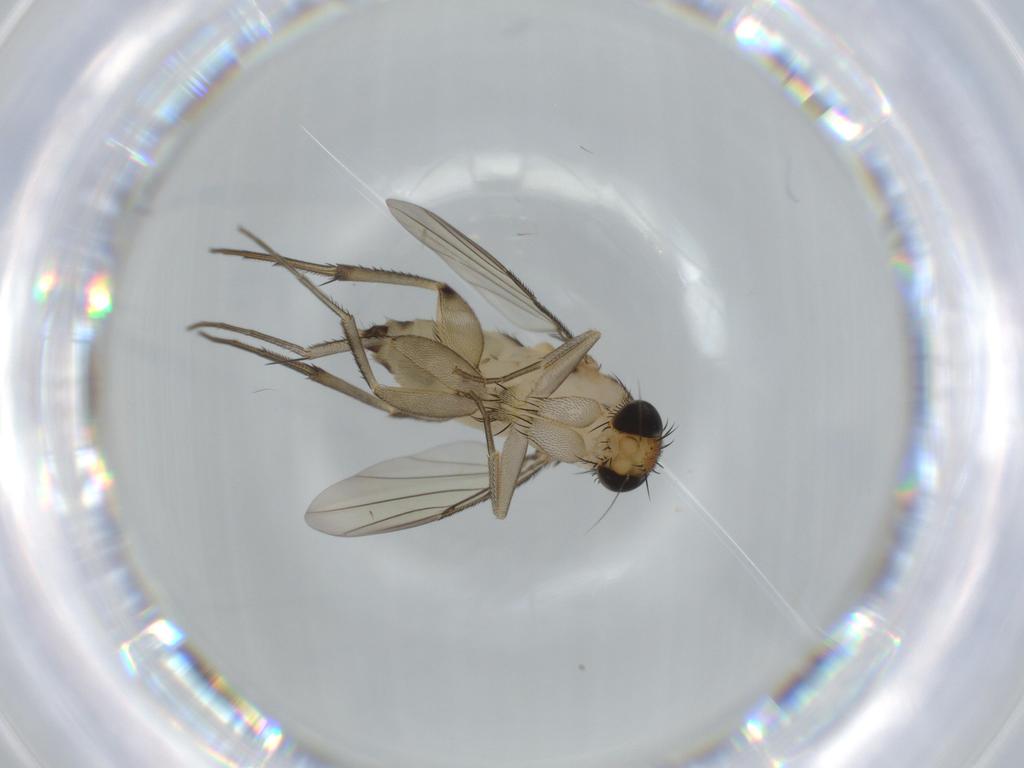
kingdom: Animalia
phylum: Arthropoda
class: Insecta
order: Diptera
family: Phoridae
